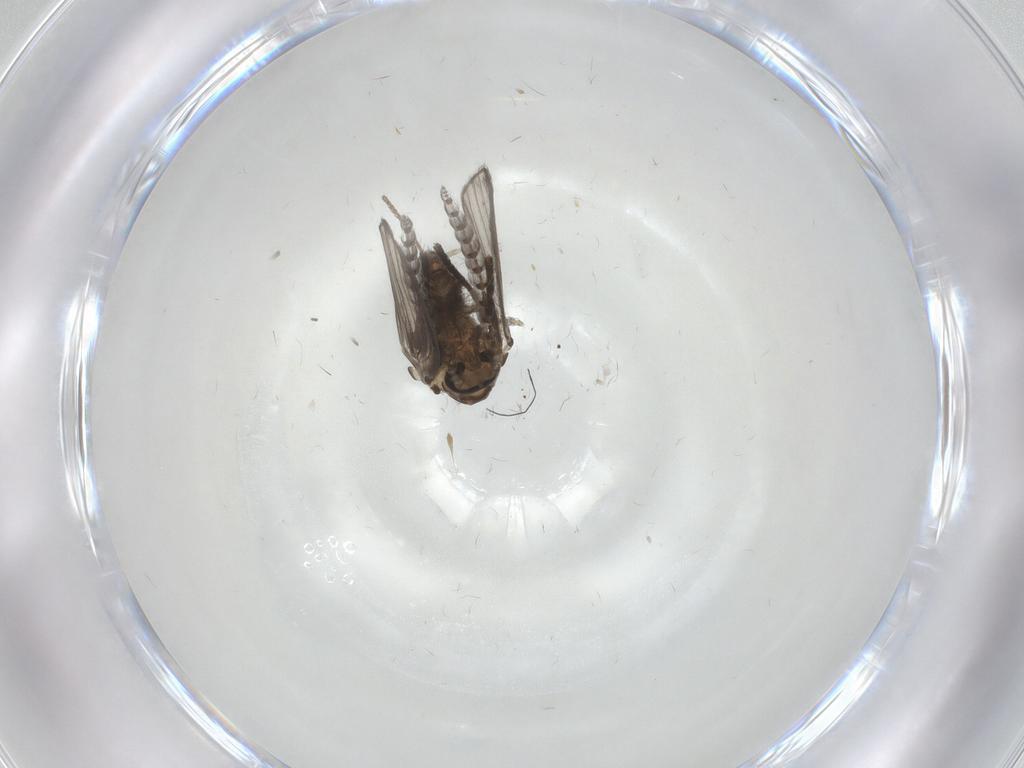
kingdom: Animalia
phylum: Arthropoda
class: Insecta
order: Diptera
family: Psychodidae
